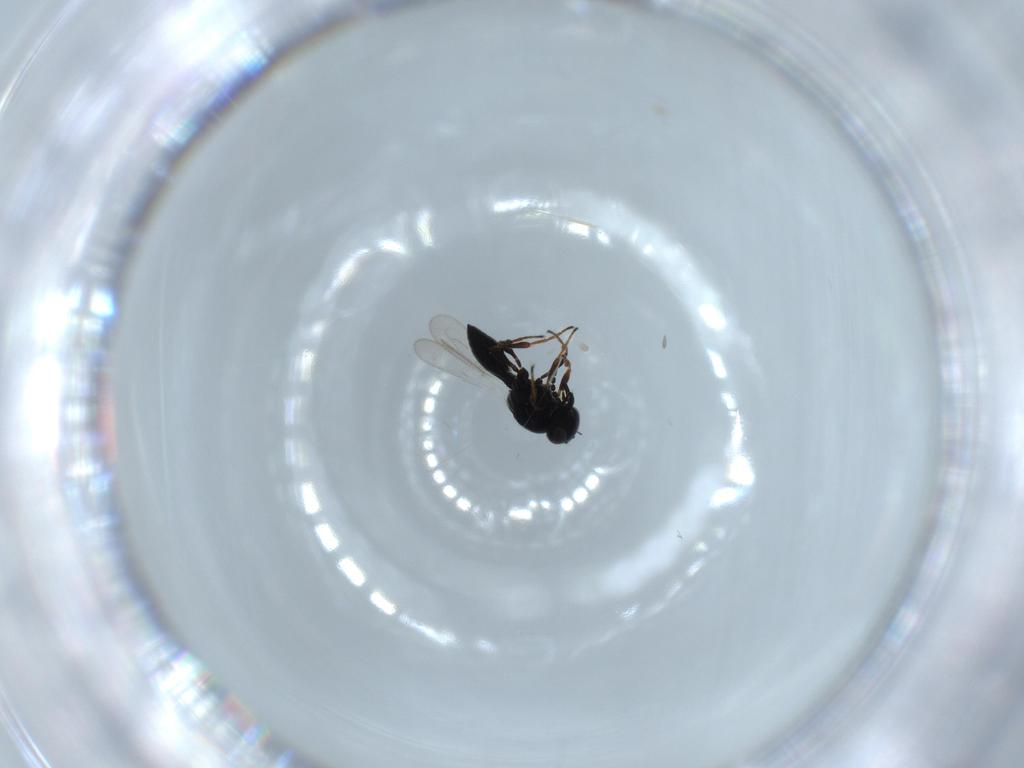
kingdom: Animalia
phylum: Arthropoda
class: Insecta
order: Hymenoptera
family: Platygastridae
